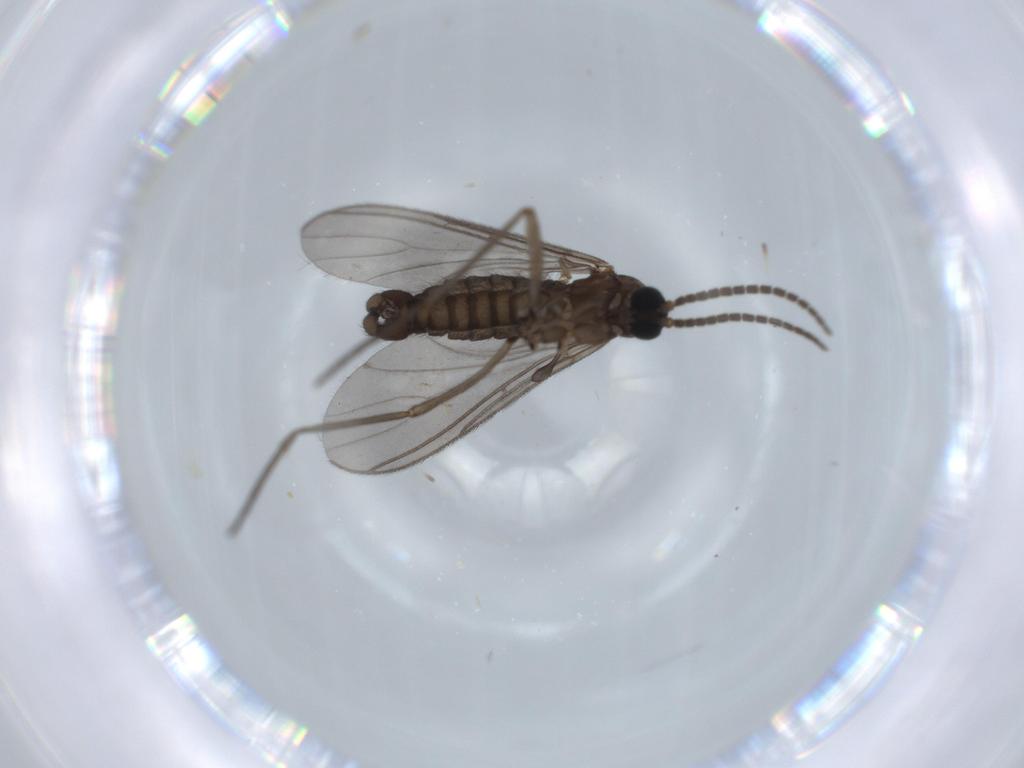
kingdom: Animalia
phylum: Arthropoda
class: Insecta
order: Diptera
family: Sciaridae
